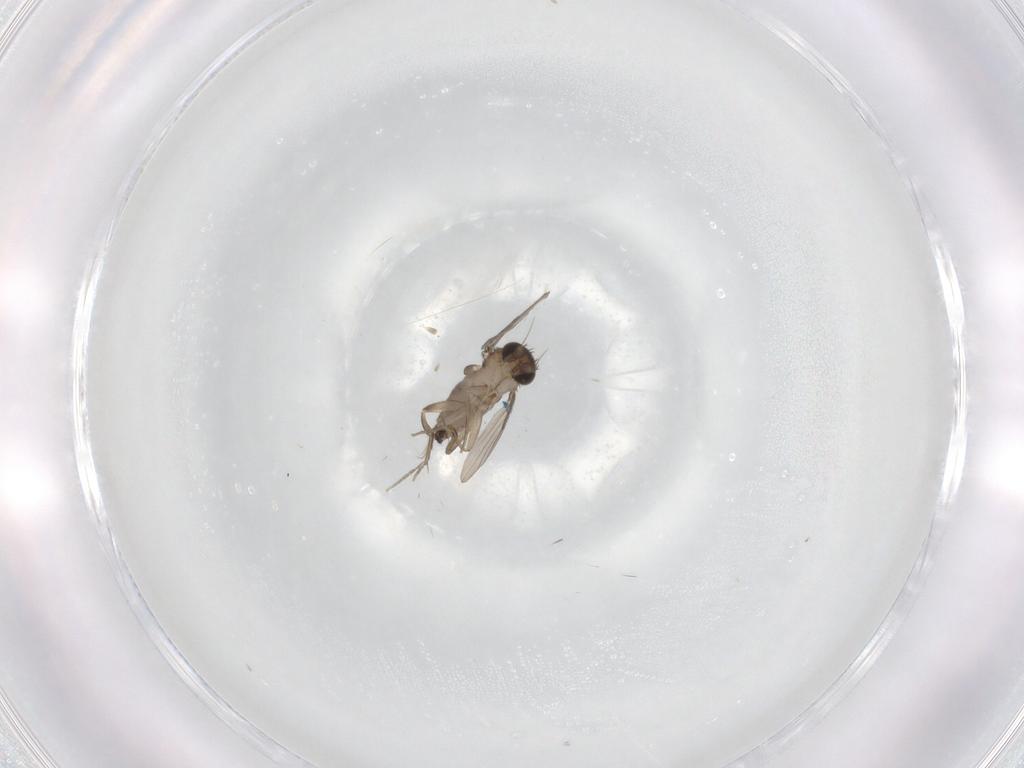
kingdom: Animalia
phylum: Arthropoda
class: Insecta
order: Diptera
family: Phoridae
